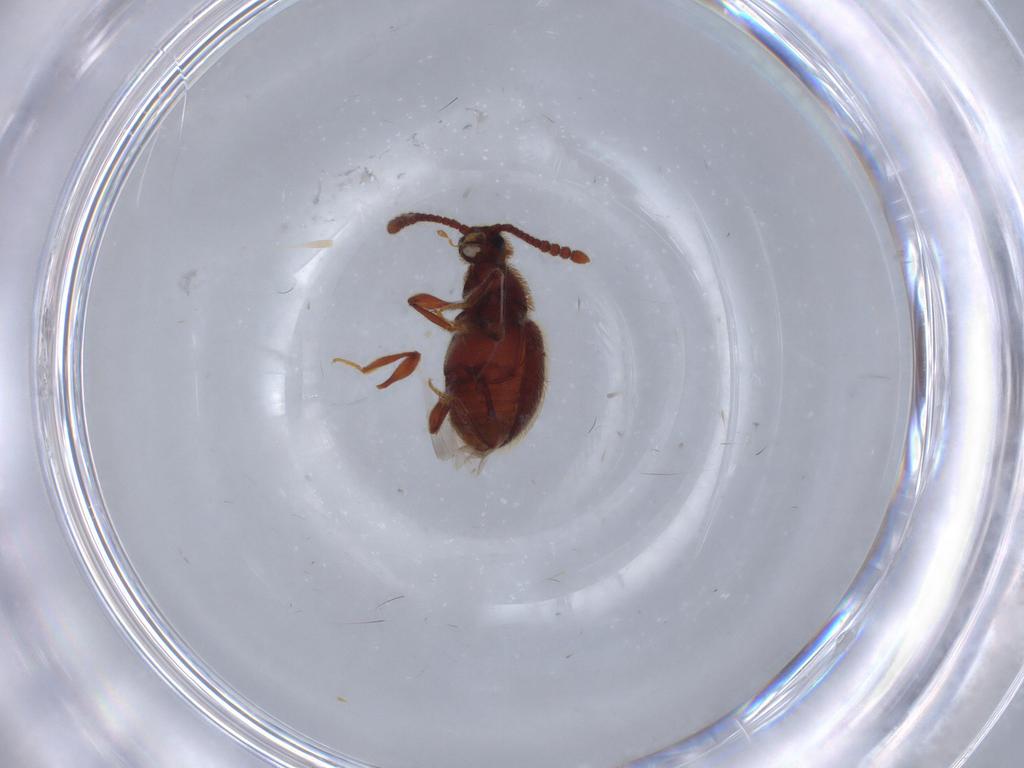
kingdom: Animalia
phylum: Arthropoda
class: Insecta
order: Coleoptera
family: Staphylinidae
